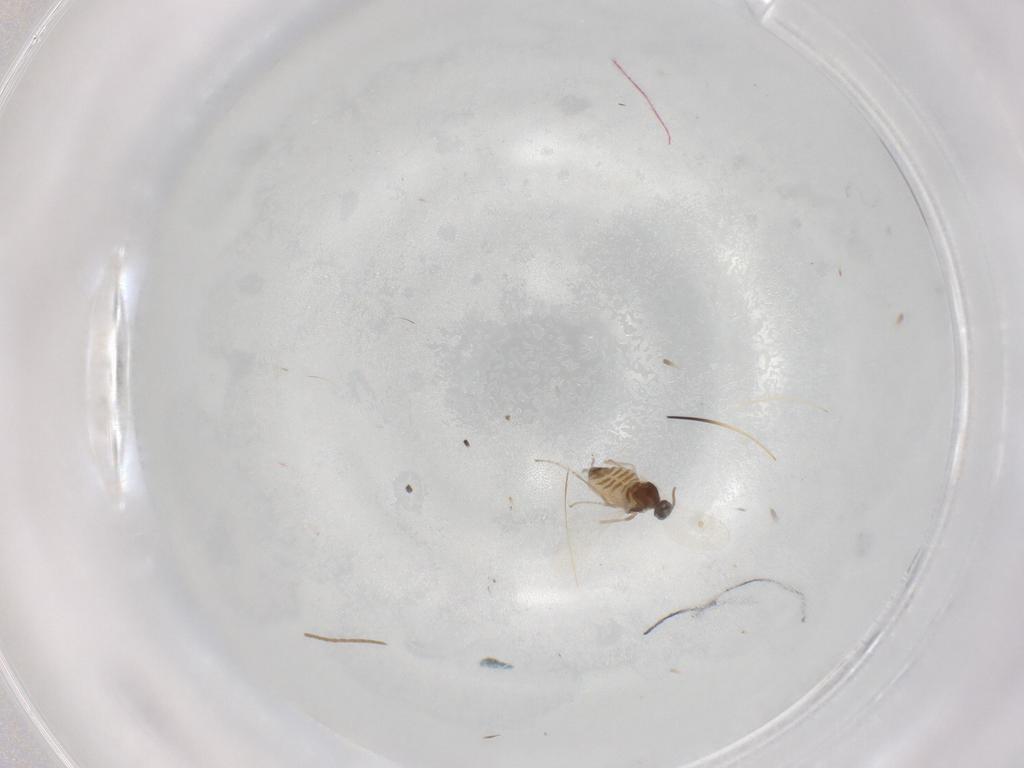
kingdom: Animalia
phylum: Arthropoda
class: Insecta
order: Diptera
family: Cecidomyiidae
